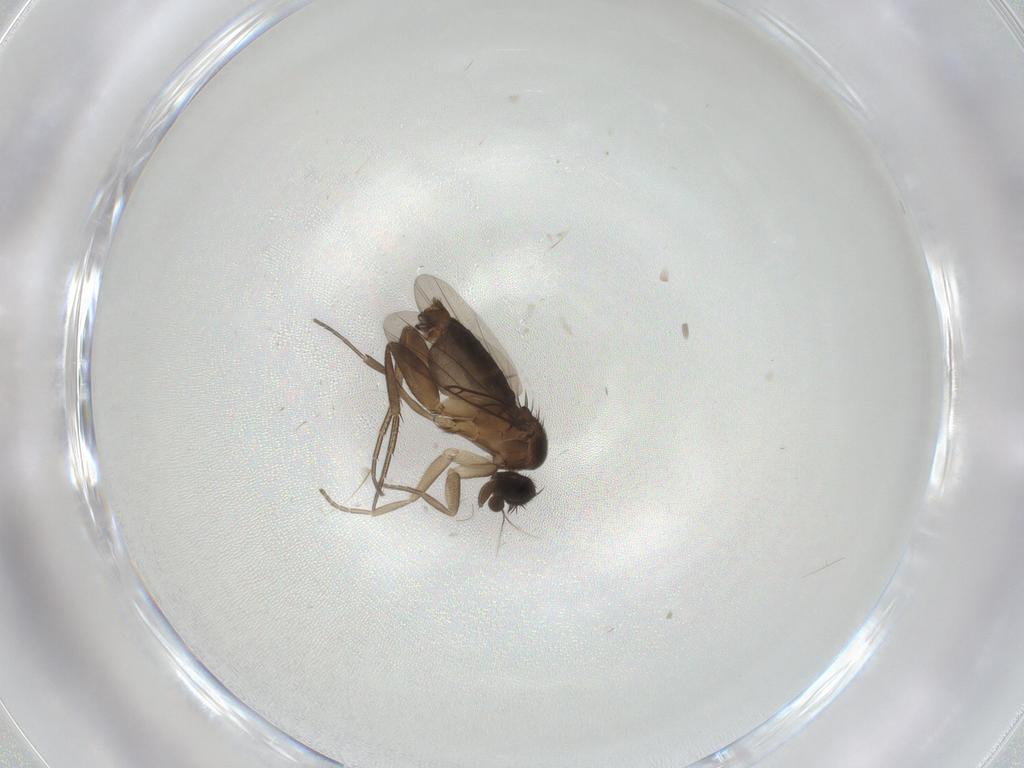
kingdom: Animalia
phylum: Arthropoda
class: Insecta
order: Diptera
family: Phoridae
